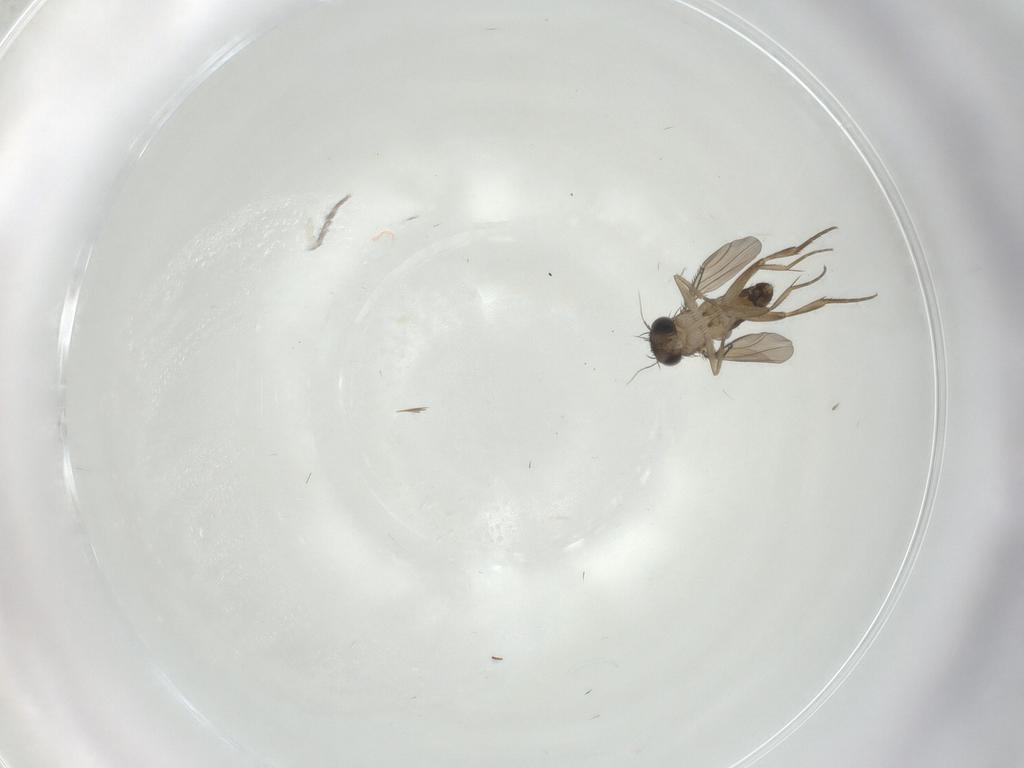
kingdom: Animalia
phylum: Arthropoda
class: Insecta
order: Diptera
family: Phoridae
